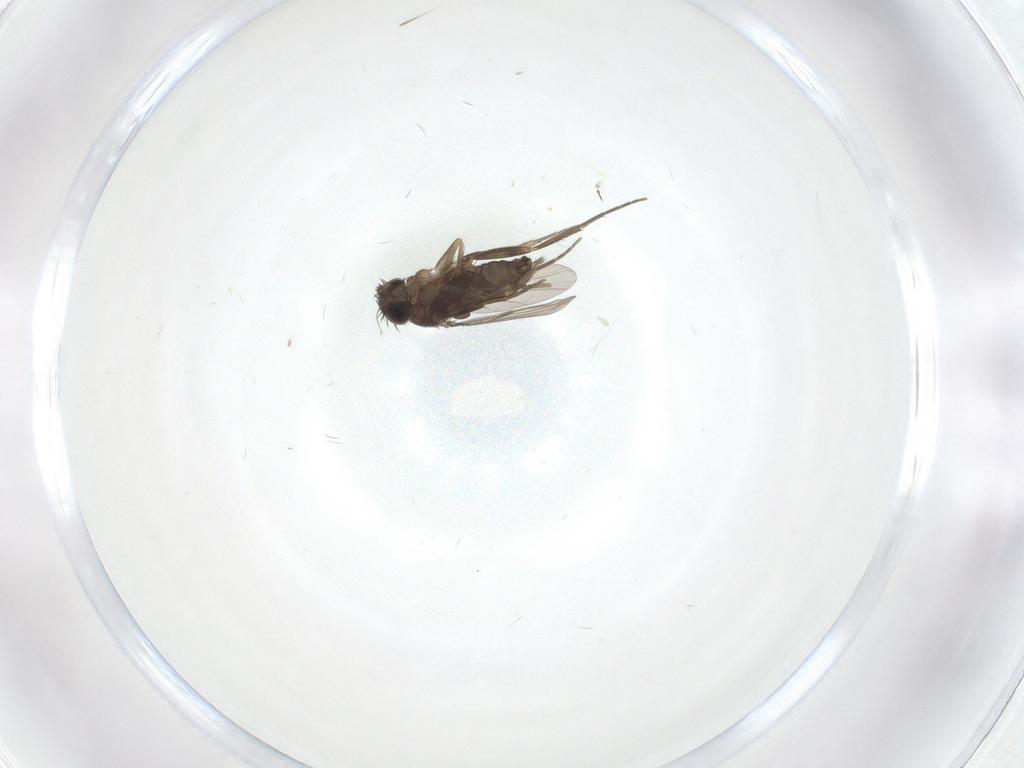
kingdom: Animalia
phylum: Arthropoda
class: Insecta
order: Diptera
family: Phoridae
